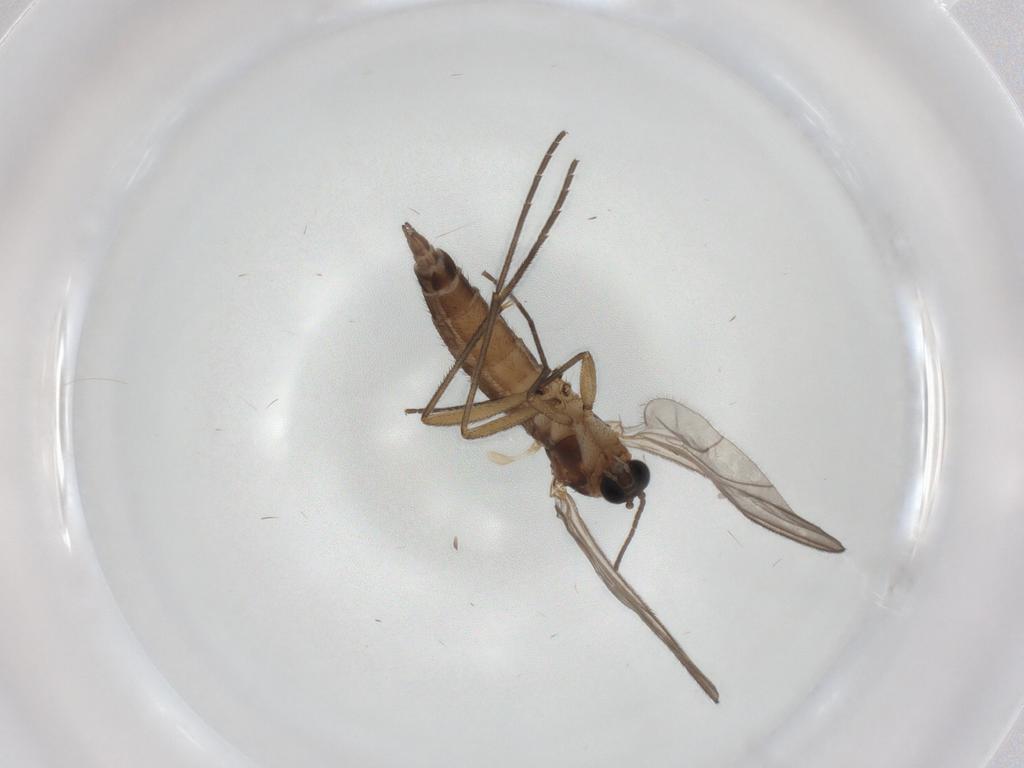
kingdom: Animalia
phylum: Arthropoda
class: Insecta
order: Diptera
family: Sciaridae
